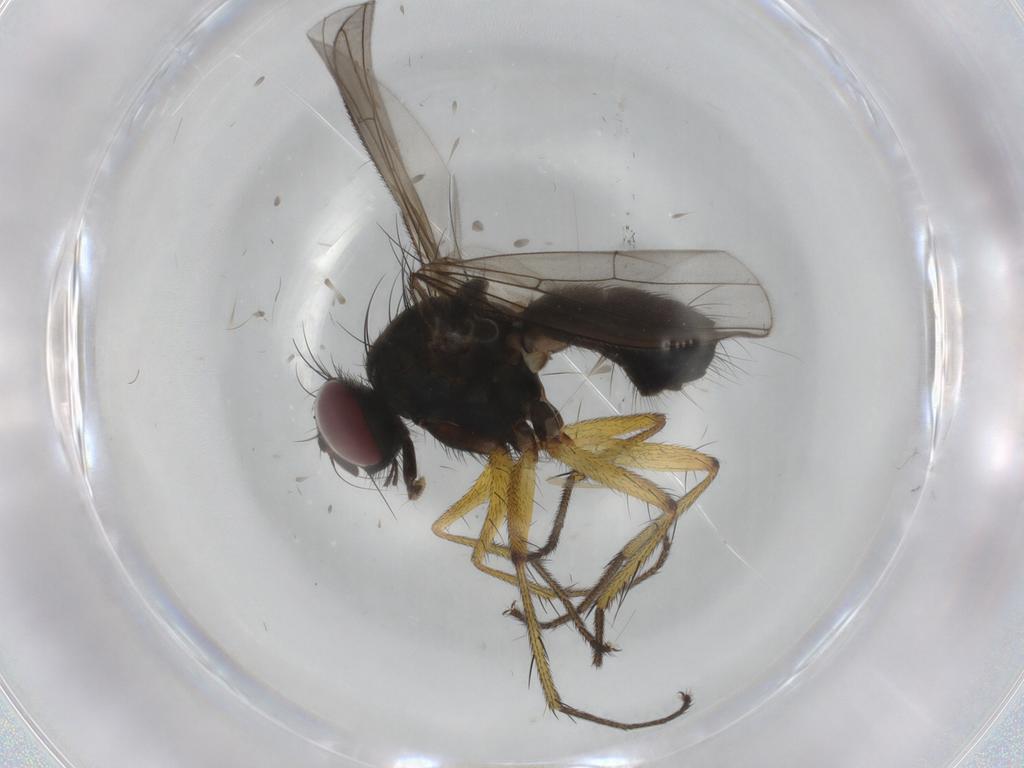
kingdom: Animalia
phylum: Arthropoda
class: Insecta
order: Diptera
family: Muscidae
